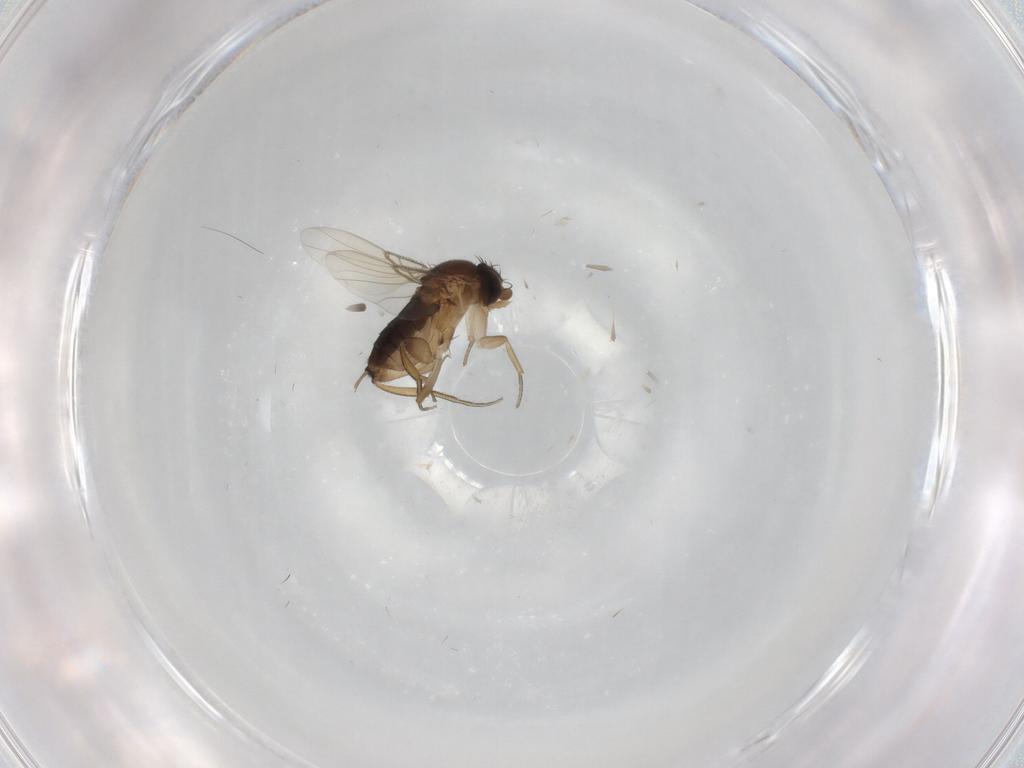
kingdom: Animalia
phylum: Arthropoda
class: Insecta
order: Diptera
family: Phoridae
